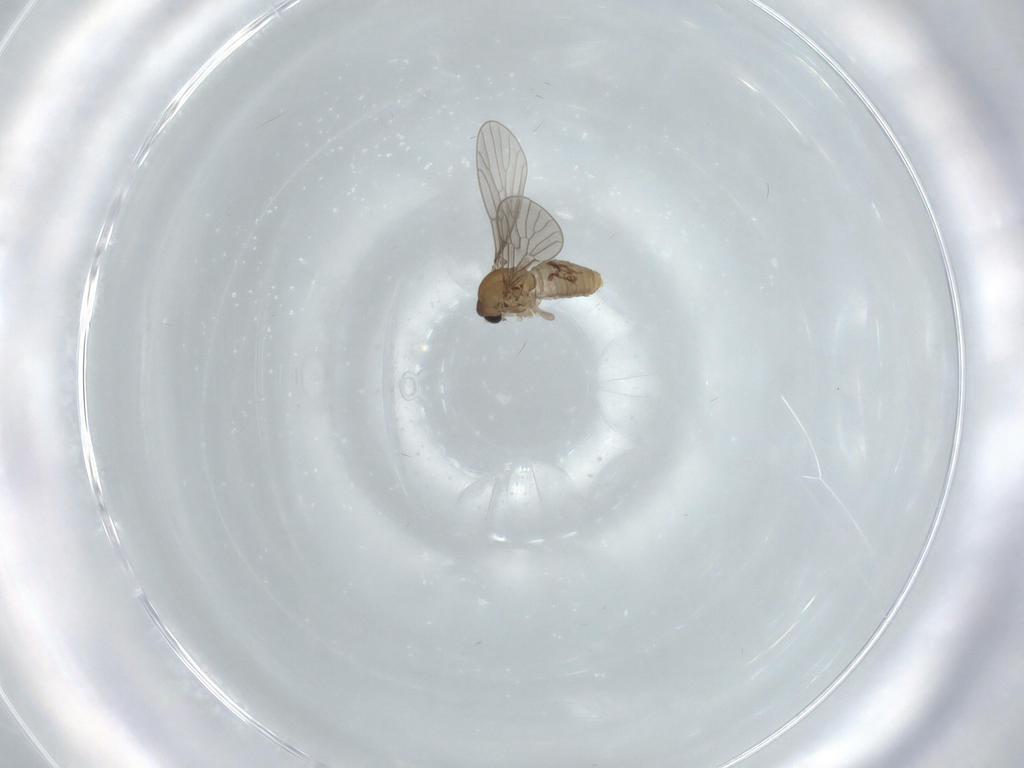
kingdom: Animalia
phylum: Arthropoda
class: Insecta
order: Diptera
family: Psychodidae
